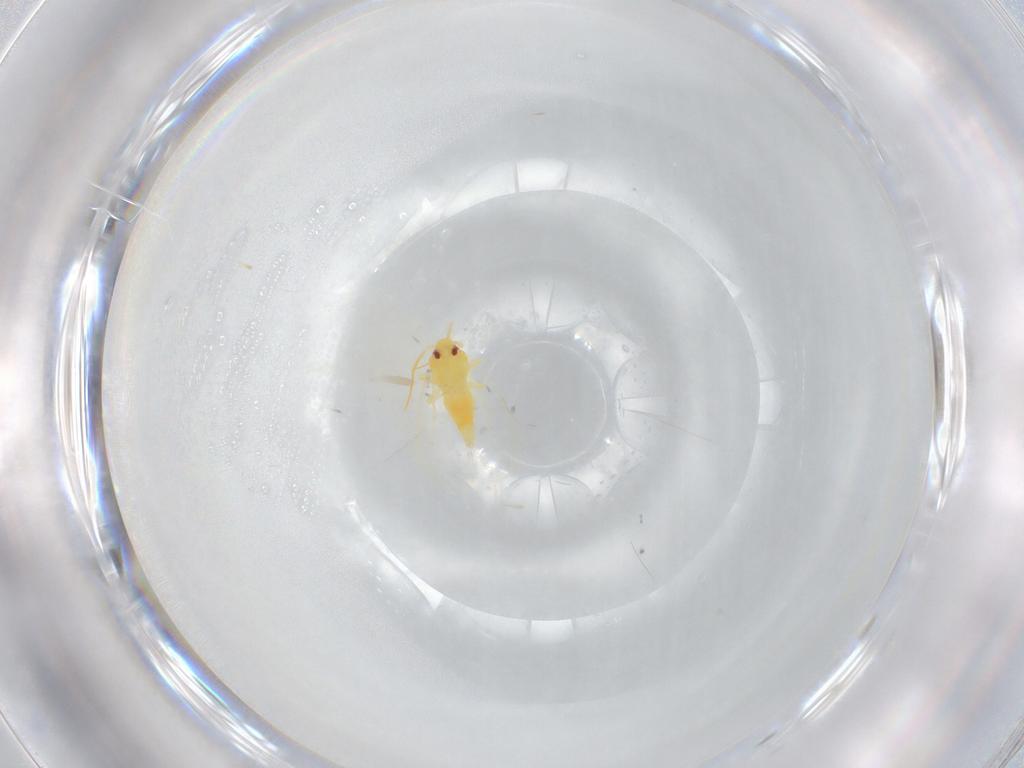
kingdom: Animalia
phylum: Arthropoda
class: Insecta
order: Hemiptera
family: Aleyrodidae
